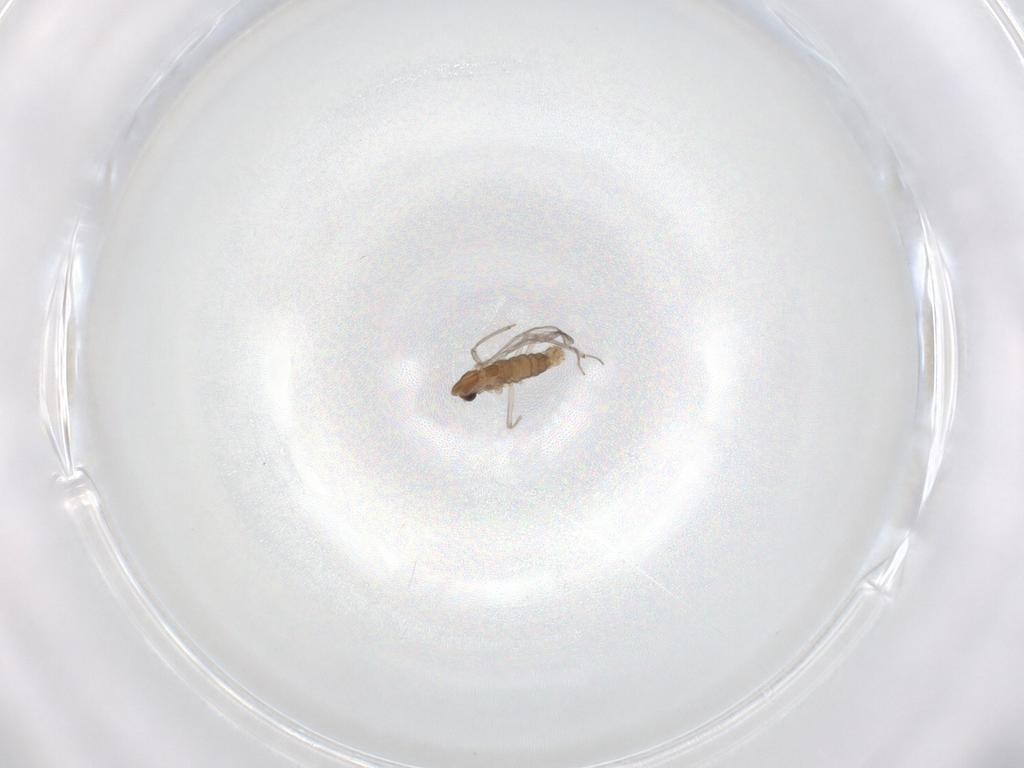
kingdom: Animalia
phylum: Arthropoda
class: Insecta
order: Diptera
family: Chironomidae
